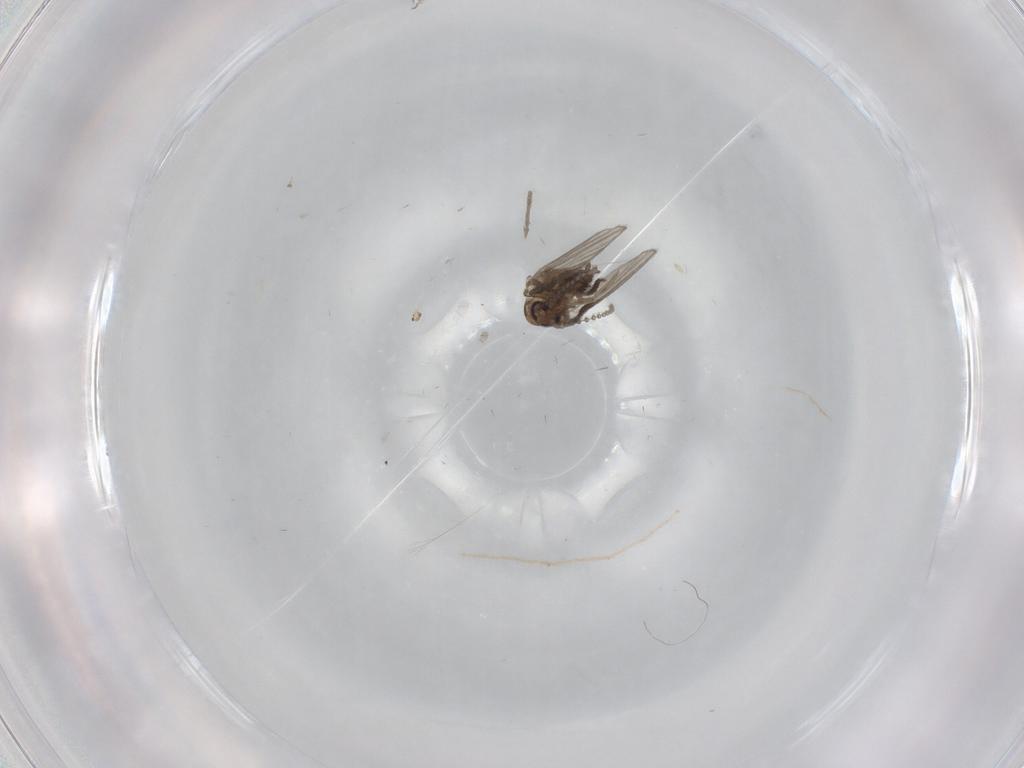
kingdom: Animalia
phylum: Arthropoda
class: Insecta
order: Diptera
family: Psychodidae
